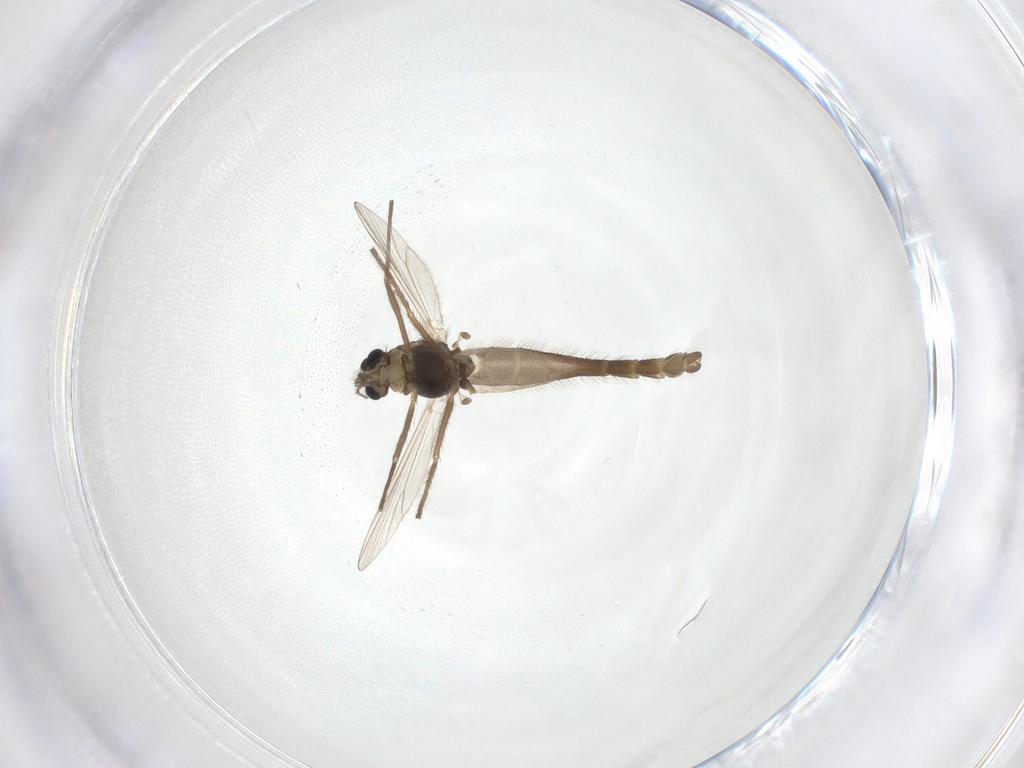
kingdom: Animalia
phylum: Arthropoda
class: Insecta
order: Diptera
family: Chironomidae
